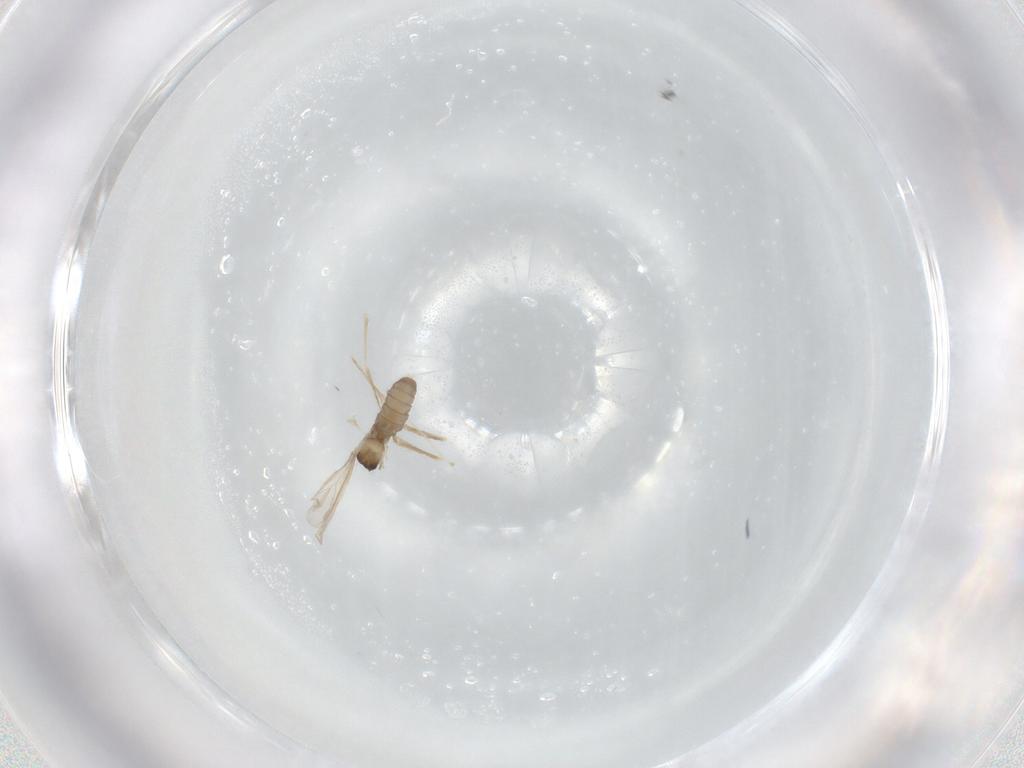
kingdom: Animalia
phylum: Arthropoda
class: Insecta
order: Diptera
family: Cecidomyiidae
